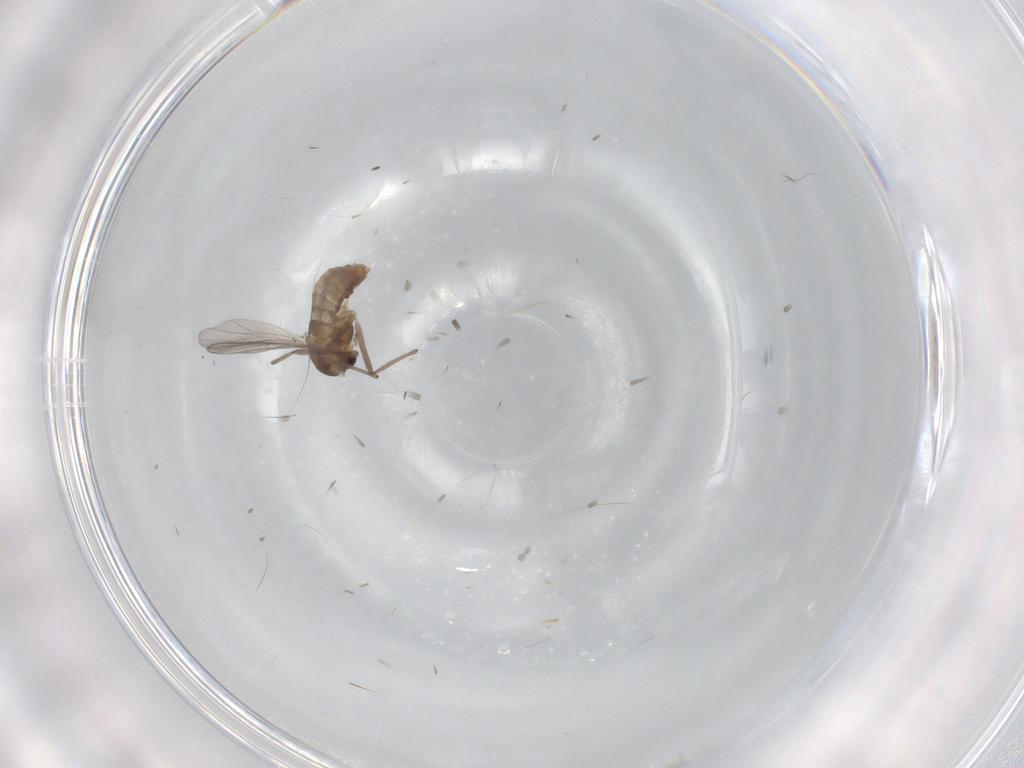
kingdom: Animalia
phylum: Arthropoda
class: Insecta
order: Diptera
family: Chironomidae
